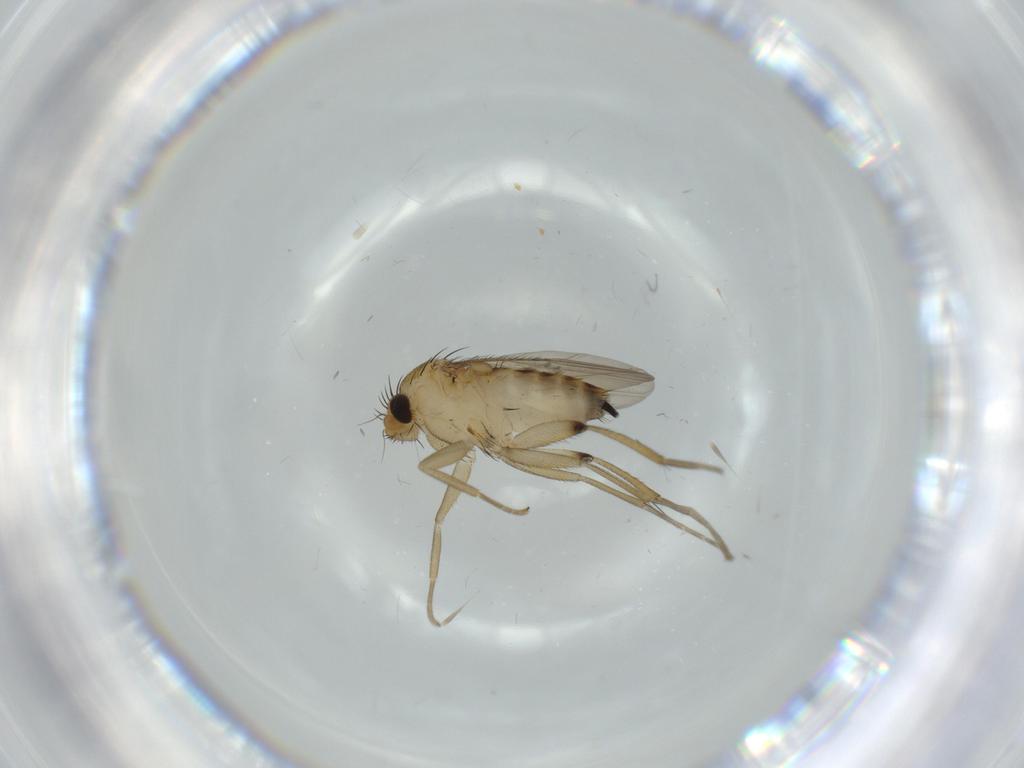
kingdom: Animalia
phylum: Arthropoda
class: Insecta
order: Diptera
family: Phoridae
